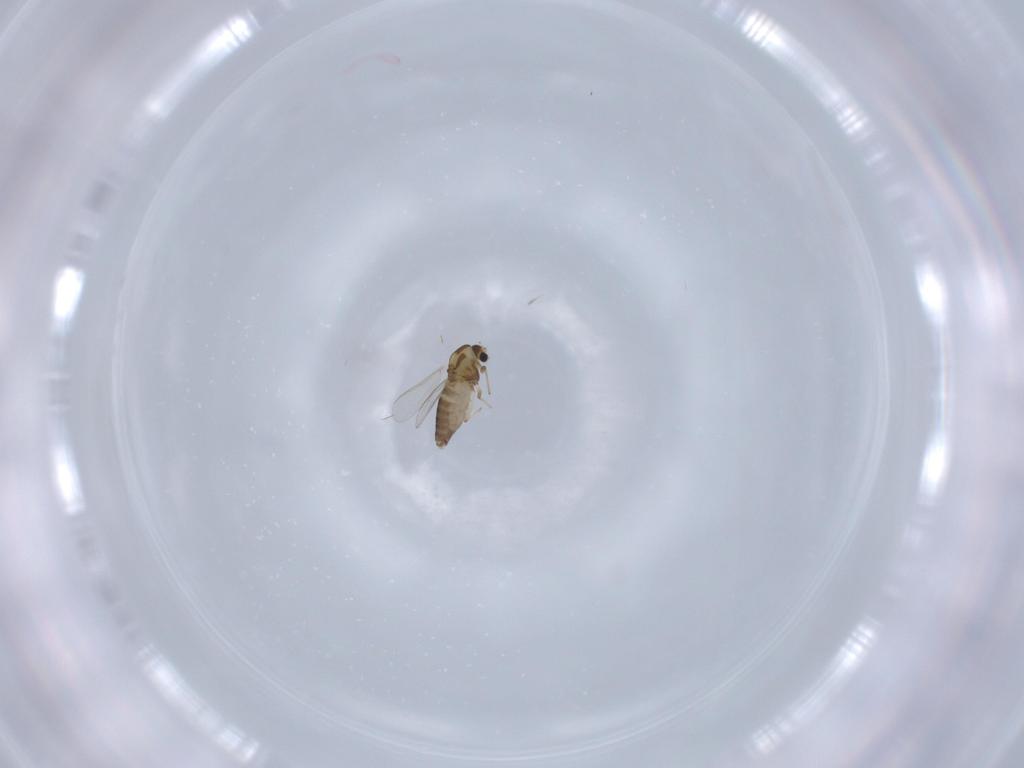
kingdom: Animalia
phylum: Arthropoda
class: Insecta
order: Diptera
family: Chironomidae
